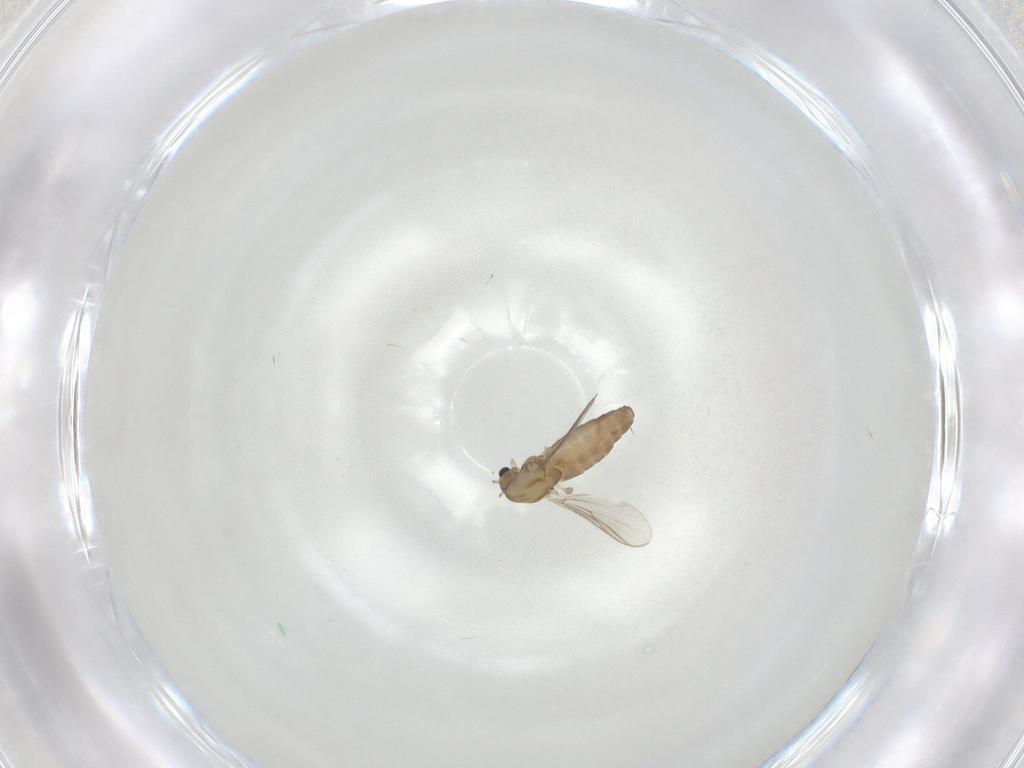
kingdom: Animalia
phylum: Arthropoda
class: Insecta
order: Diptera
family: Chironomidae
